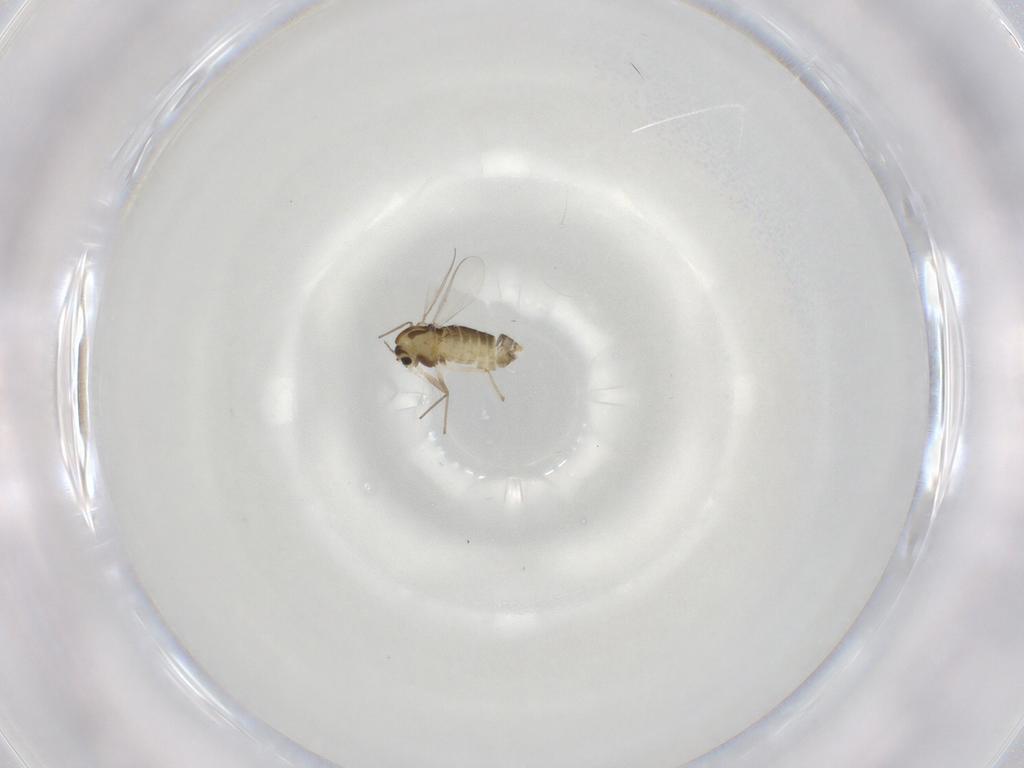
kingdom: Animalia
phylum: Arthropoda
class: Insecta
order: Diptera
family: Chironomidae
